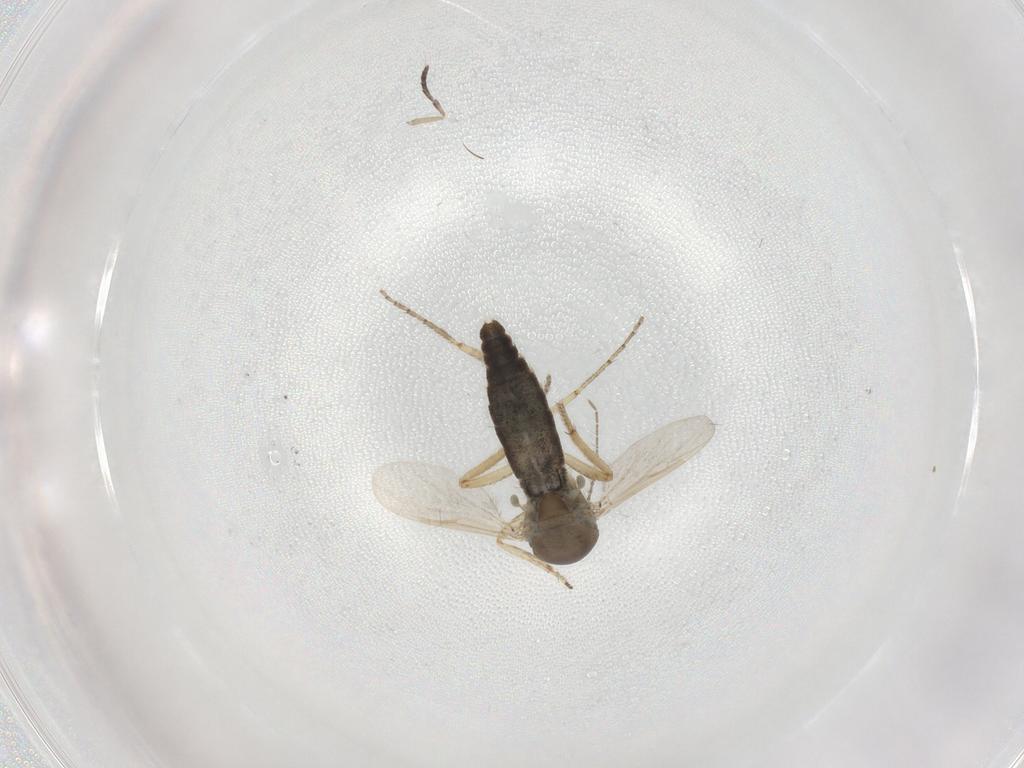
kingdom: Animalia
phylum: Arthropoda
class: Insecta
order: Diptera
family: Ceratopogonidae
